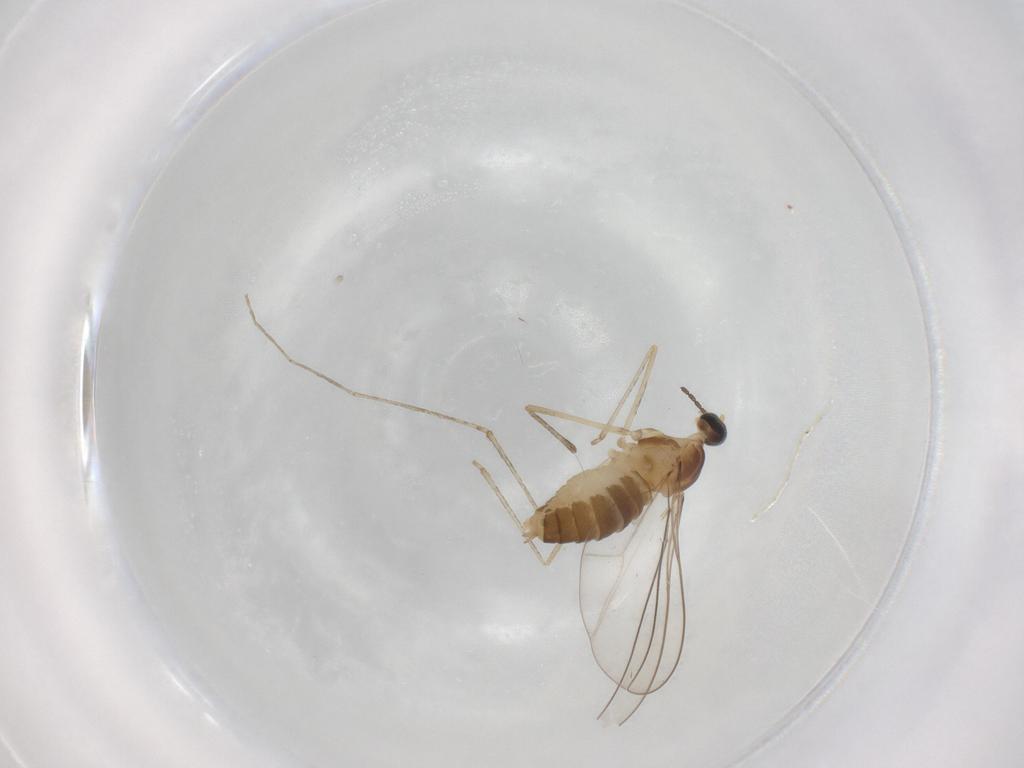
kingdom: Animalia
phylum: Arthropoda
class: Insecta
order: Diptera
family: Cecidomyiidae
